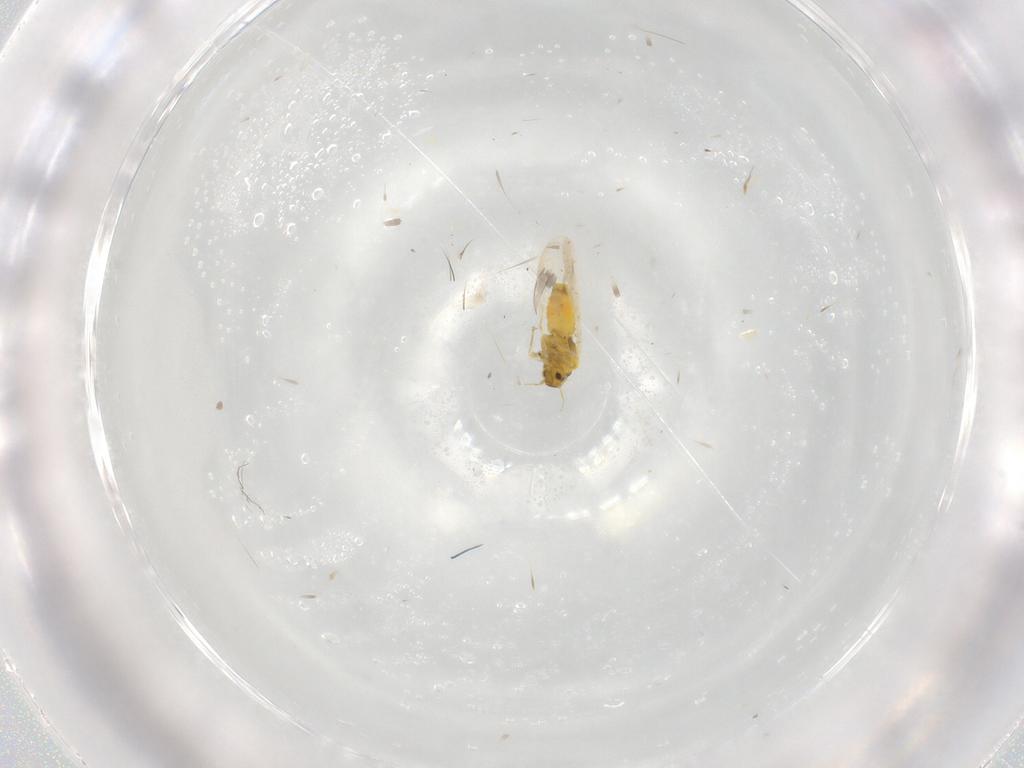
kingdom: Animalia
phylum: Arthropoda
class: Insecta
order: Hemiptera
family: Aleyrodidae
